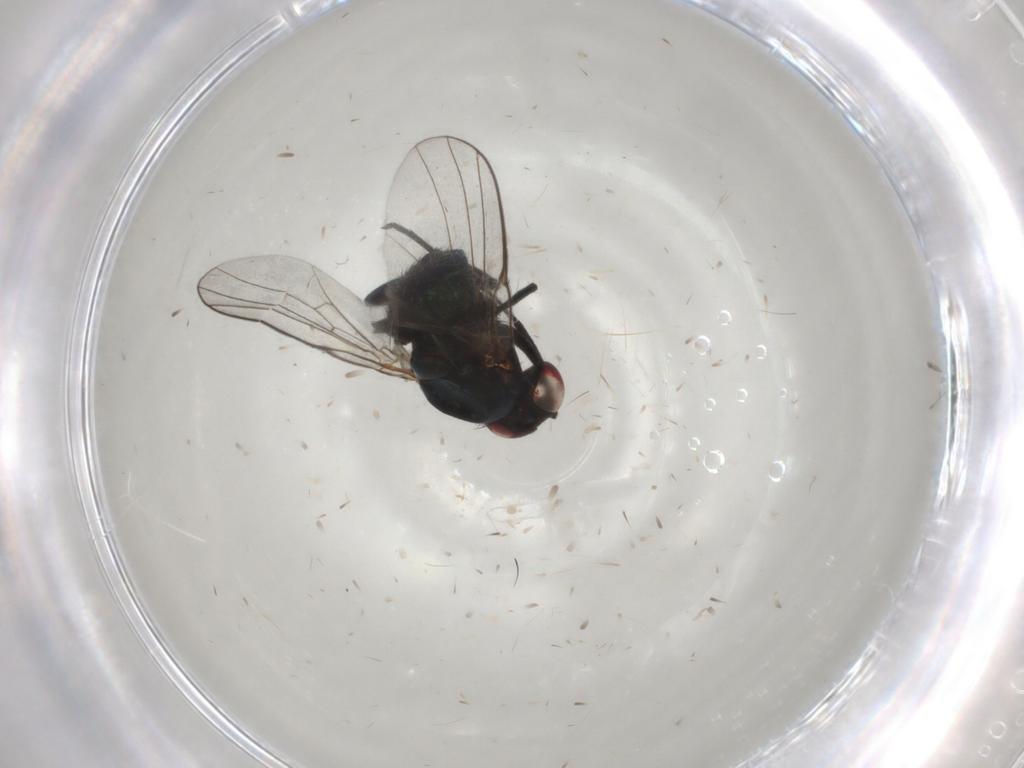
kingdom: Animalia
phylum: Arthropoda
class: Insecta
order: Diptera
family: Agromyzidae
